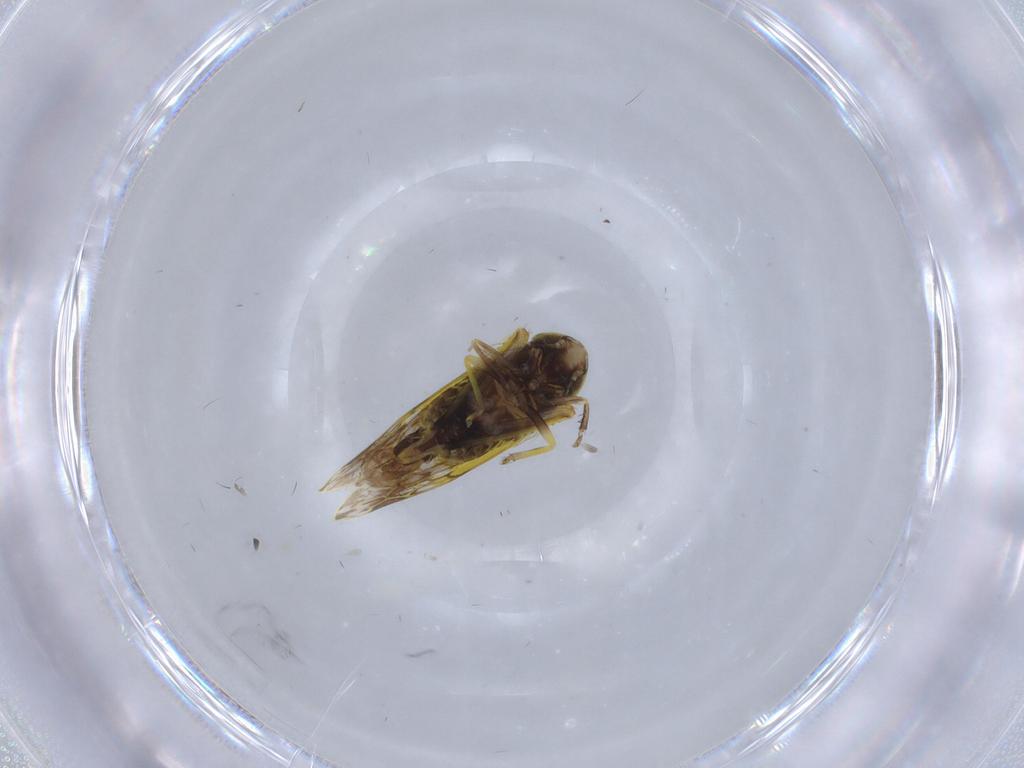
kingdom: Animalia
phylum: Arthropoda
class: Insecta
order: Hemiptera
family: Cicadellidae
